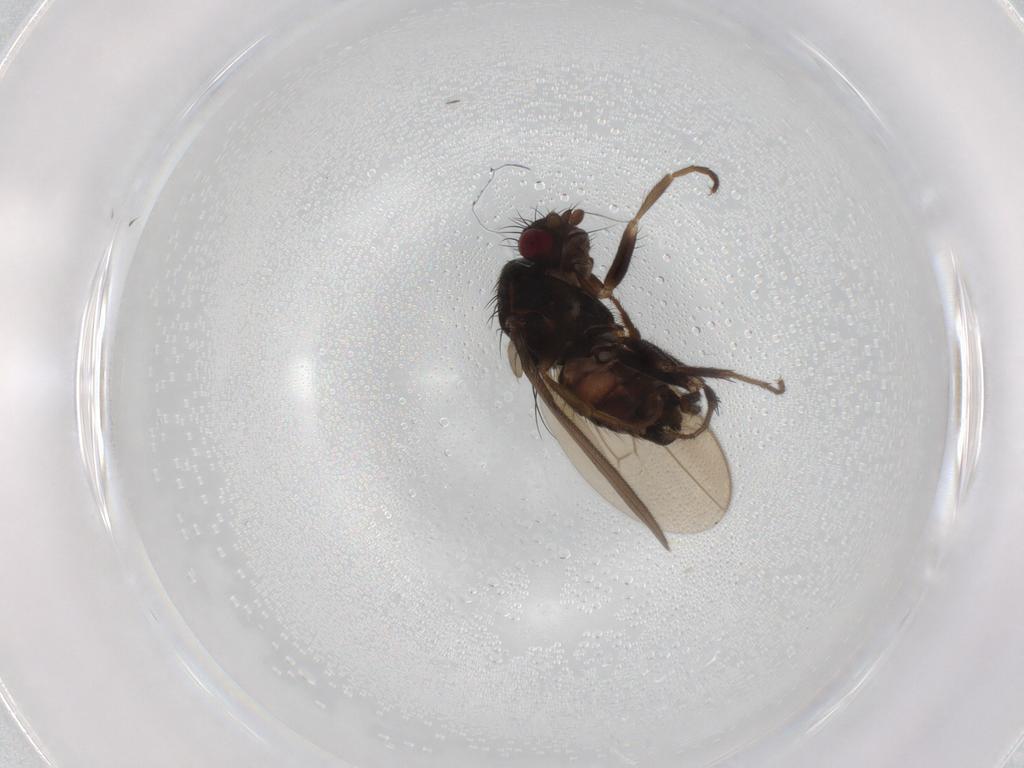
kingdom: Animalia
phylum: Arthropoda
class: Insecta
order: Diptera
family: Sphaeroceridae
